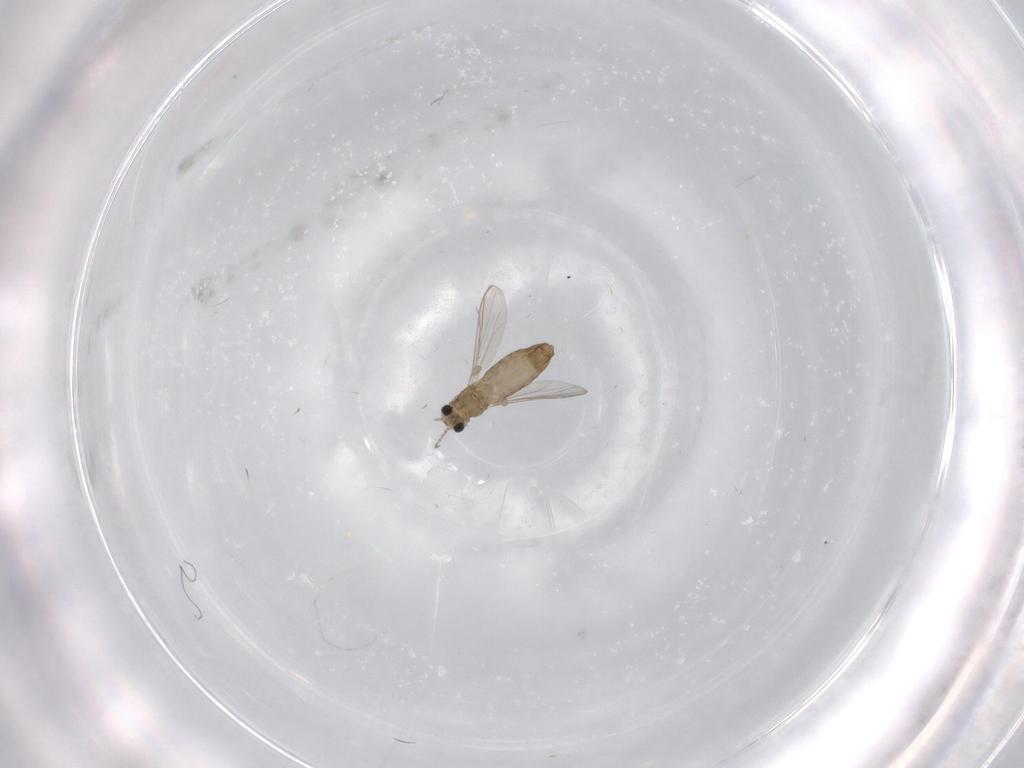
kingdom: Animalia
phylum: Arthropoda
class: Insecta
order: Diptera
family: Chironomidae
